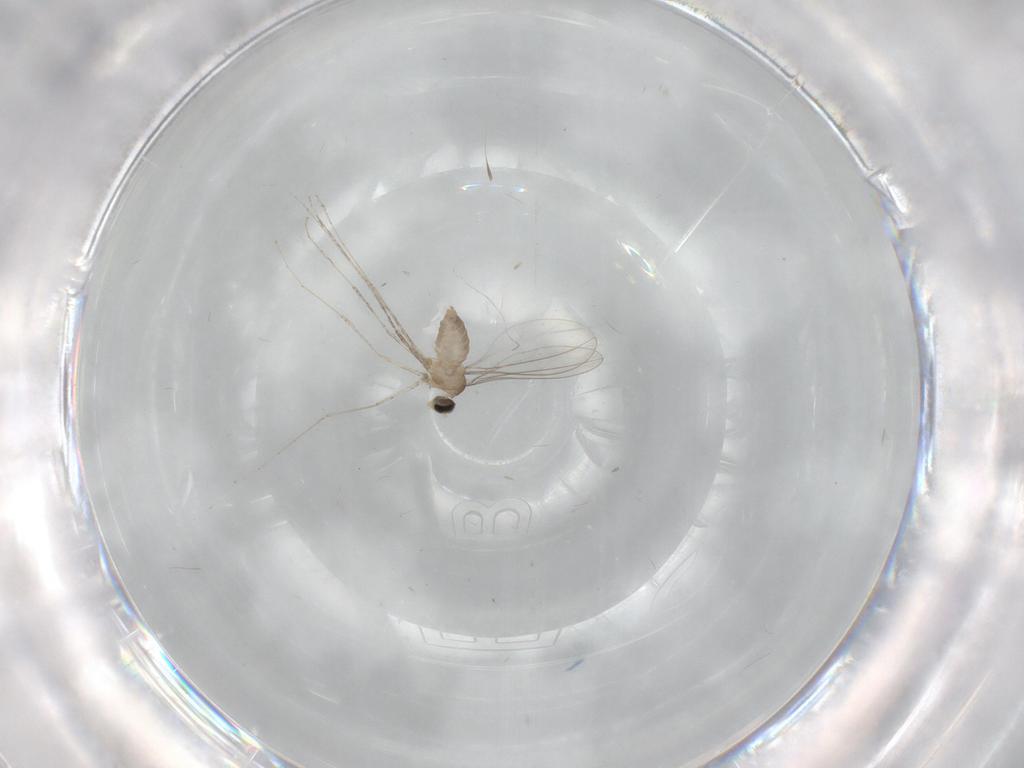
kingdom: Animalia
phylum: Arthropoda
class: Insecta
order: Diptera
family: Cecidomyiidae
